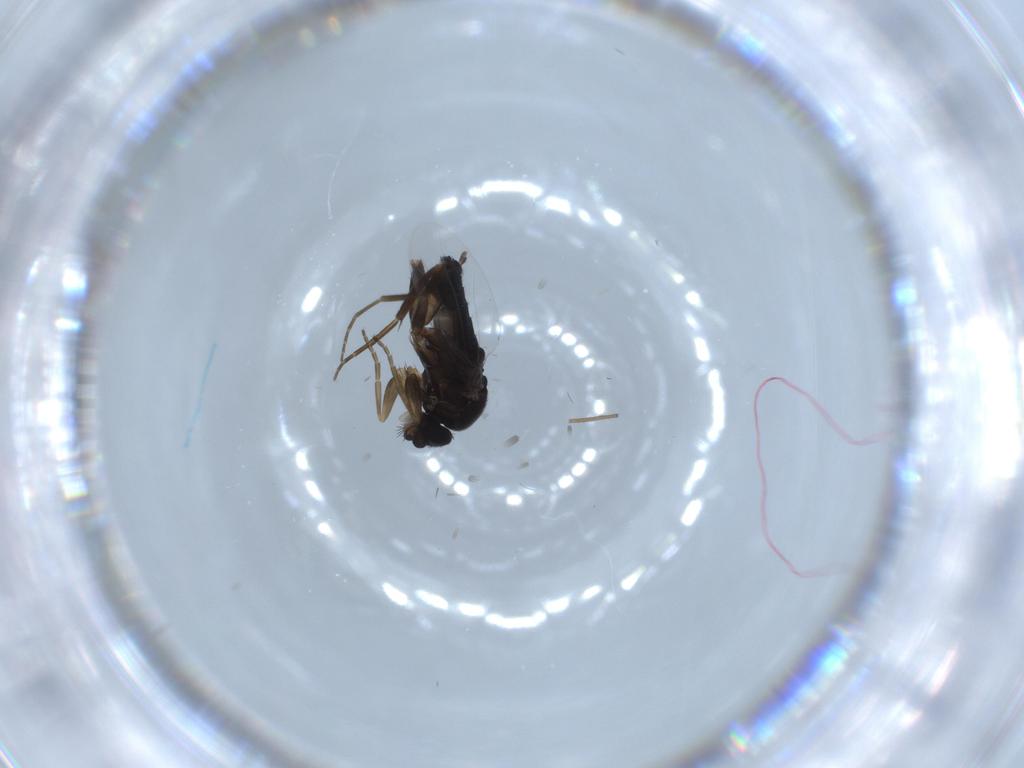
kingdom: Animalia
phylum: Arthropoda
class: Insecta
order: Diptera
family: Phoridae
